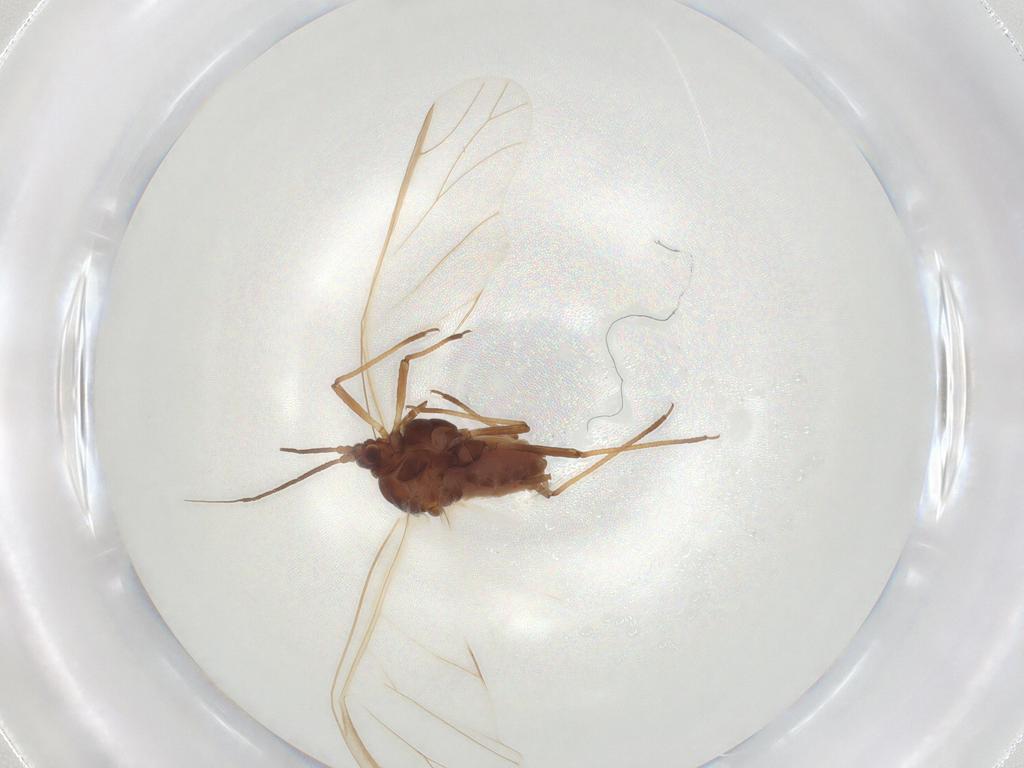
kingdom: Animalia
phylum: Arthropoda
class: Insecta
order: Hemiptera
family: Aphididae
